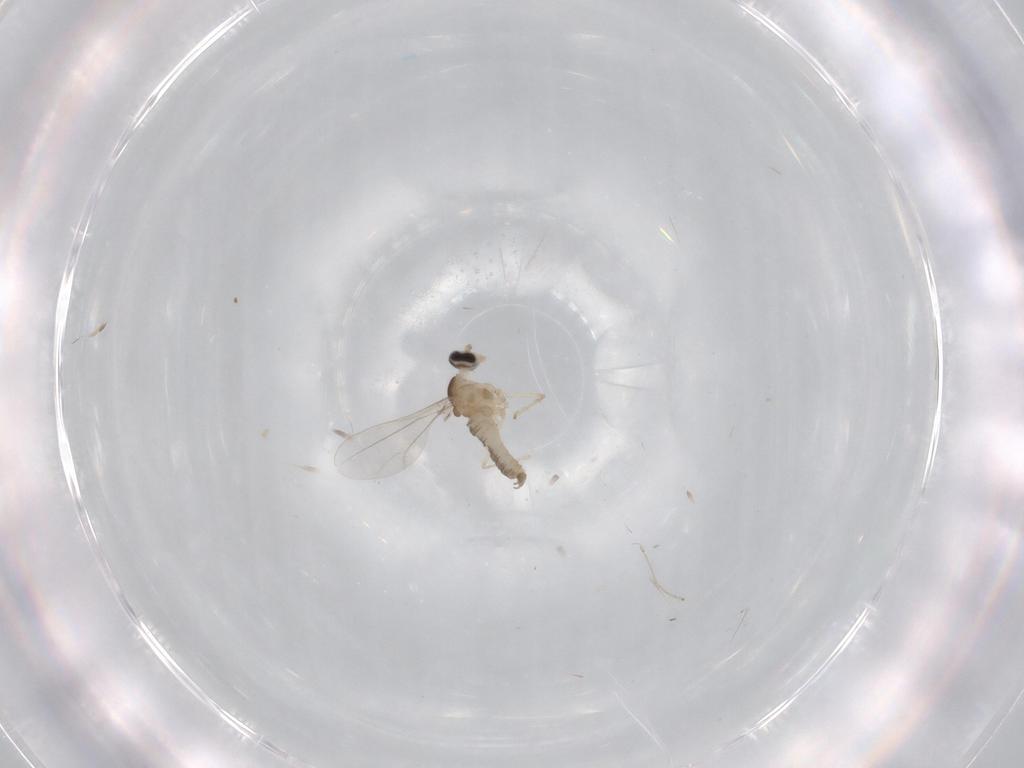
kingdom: Animalia
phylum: Arthropoda
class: Insecta
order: Diptera
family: Cecidomyiidae
